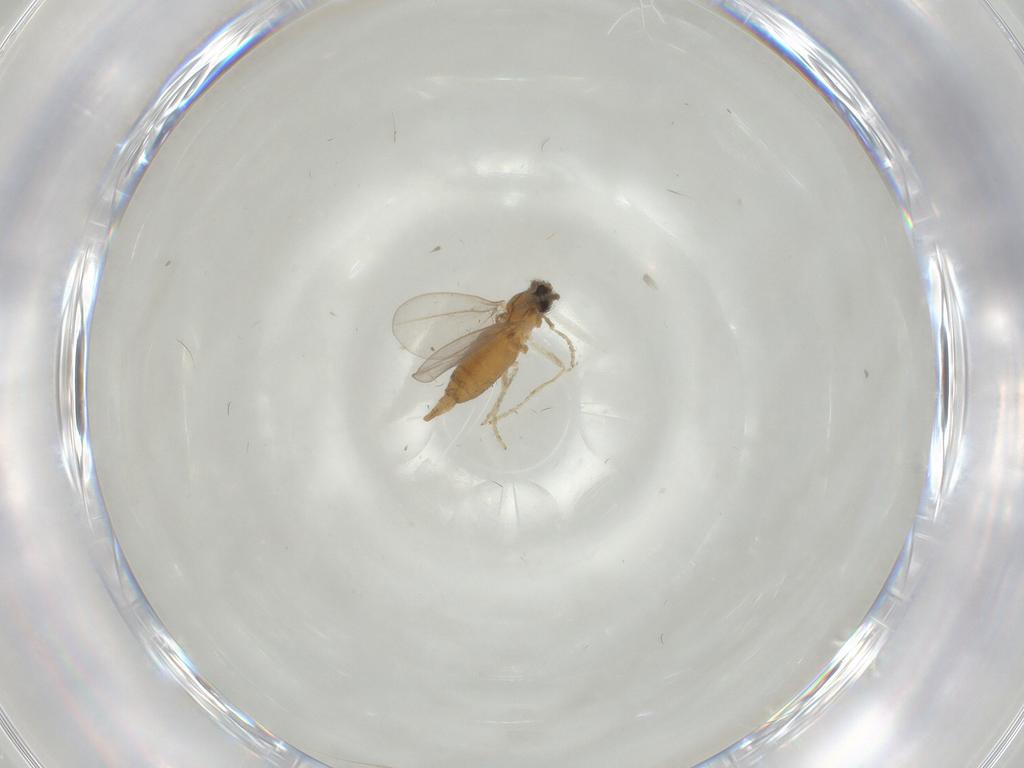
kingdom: Animalia
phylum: Arthropoda
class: Insecta
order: Diptera
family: Cecidomyiidae
